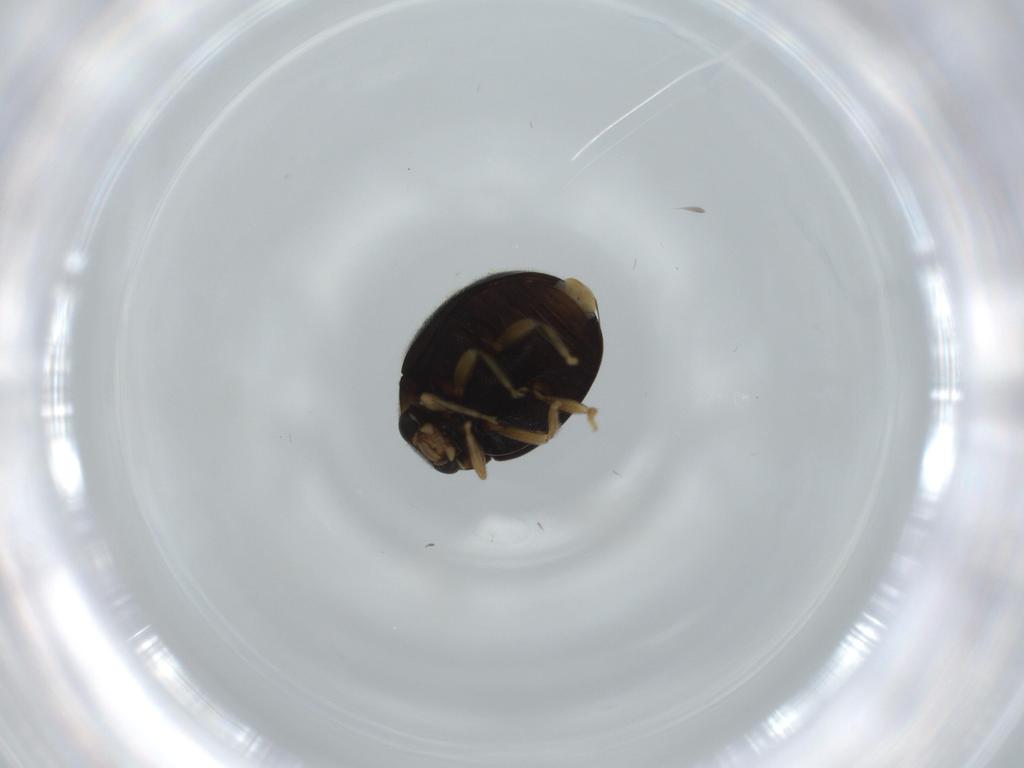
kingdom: Animalia
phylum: Arthropoda
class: Insecta
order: Coleoptera
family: Coccinellidae
